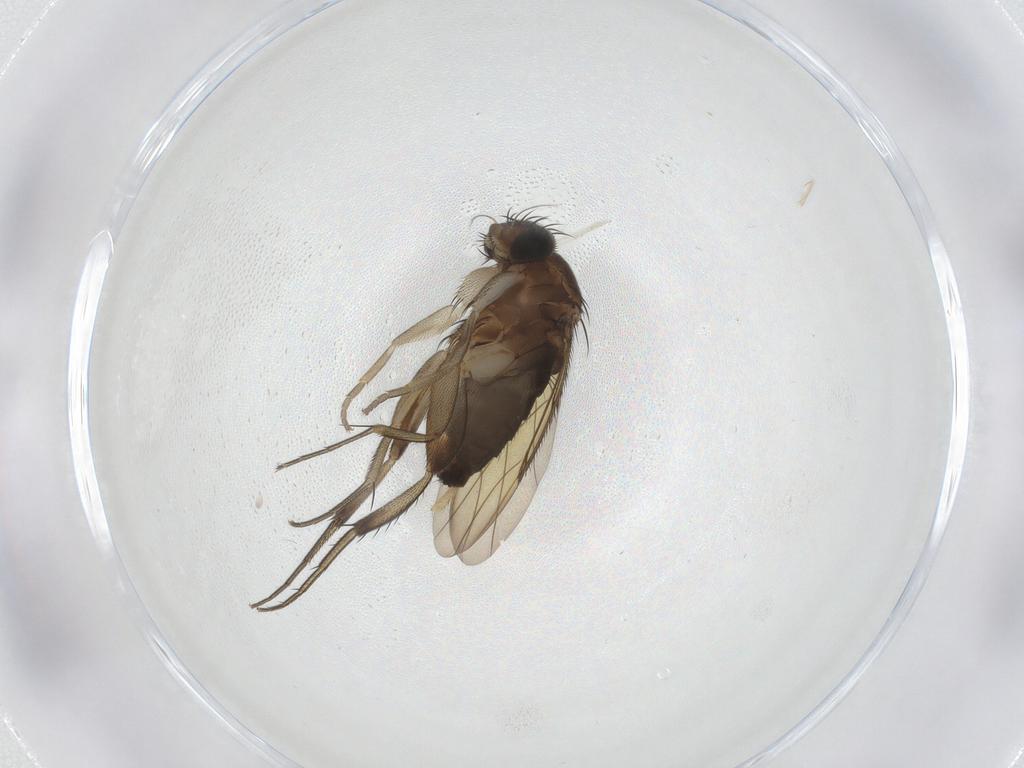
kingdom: Animalia
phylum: Arthropoda
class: Insecta
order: Diptera
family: Phoridae
